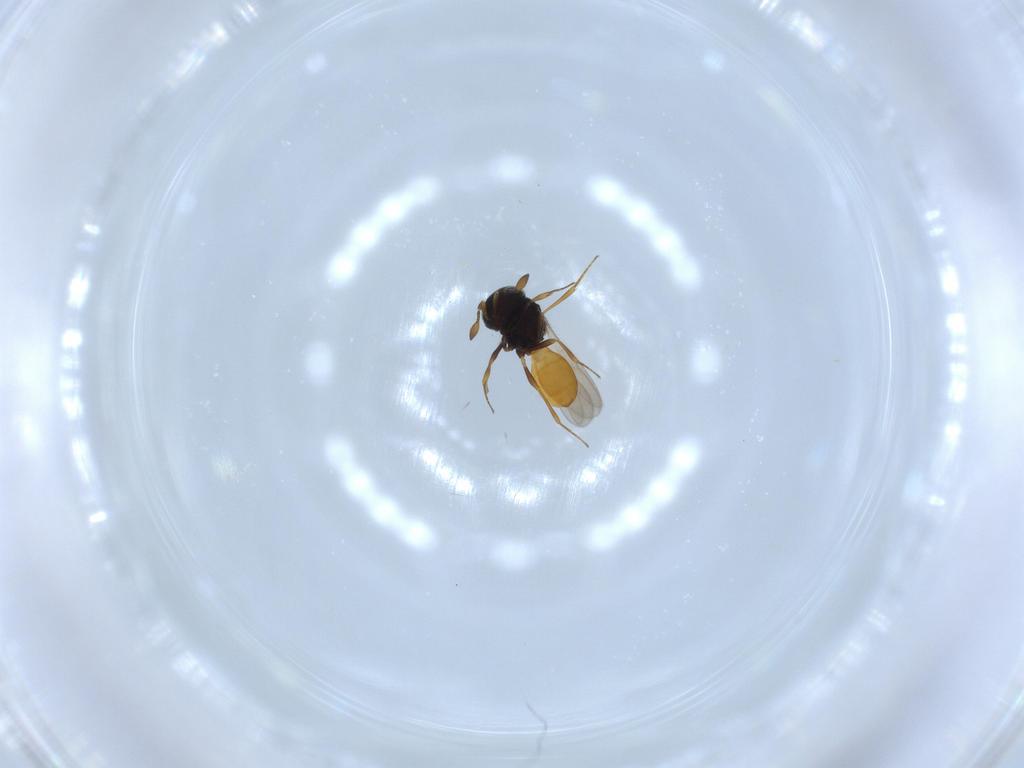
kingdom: Animalia
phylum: Arthropoda
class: Insecta
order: Hymenoptera
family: Scelionidae
